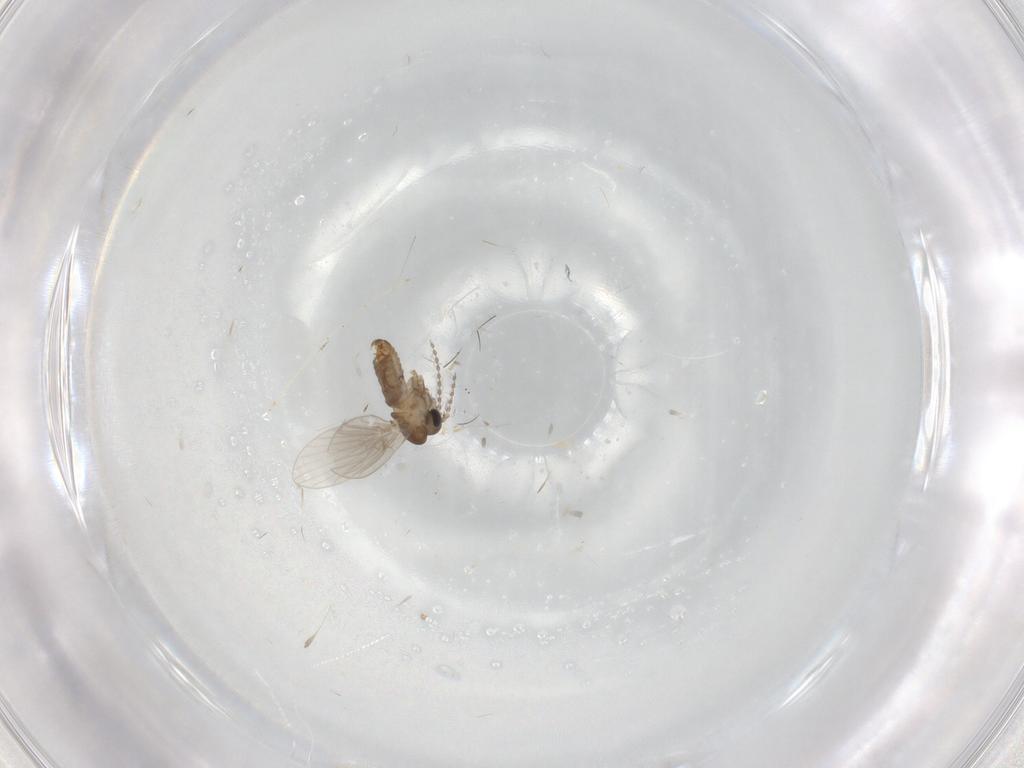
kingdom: Animalia
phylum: Arthropoda
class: Insecta
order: Diptera
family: Cecidomyiidae
